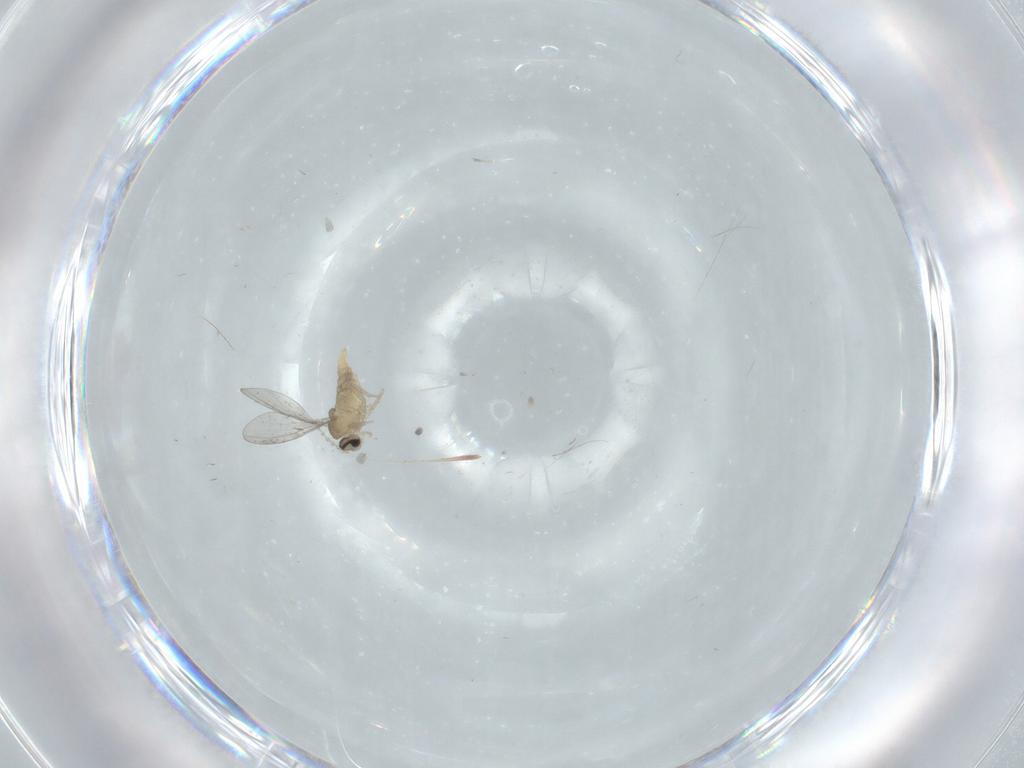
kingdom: Animalia
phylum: Arthropoda
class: Insecta
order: Diptera
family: Cecidomyiidae
